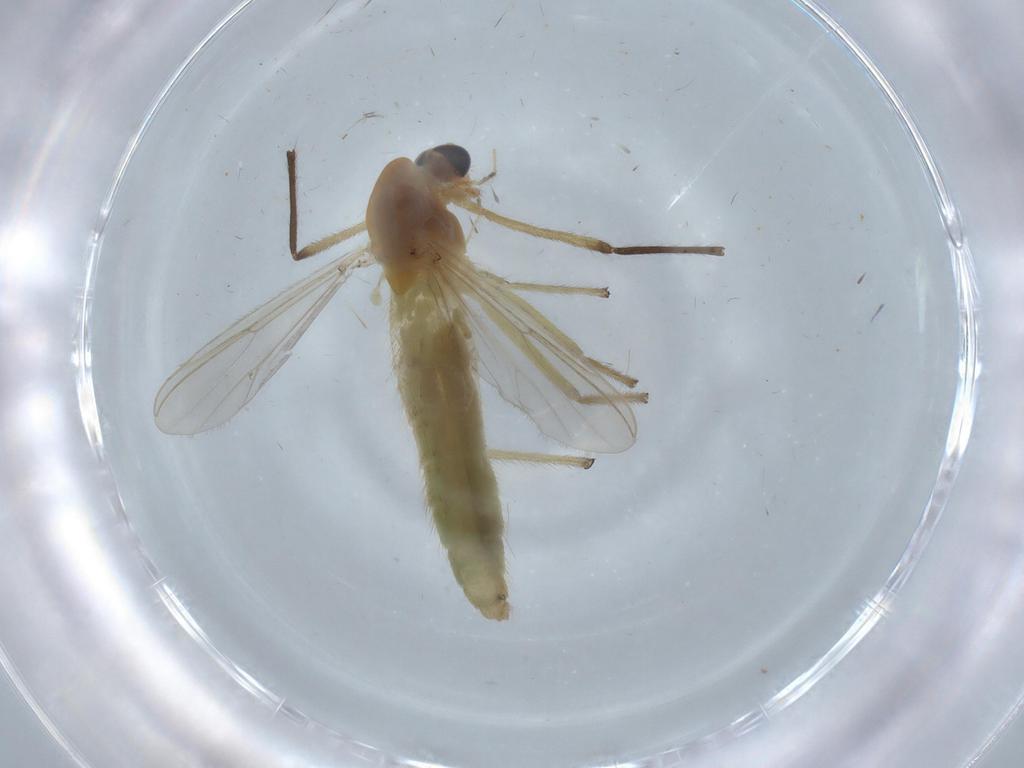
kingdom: Animalia
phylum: Arthropoda
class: Insecta
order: Diptera
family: Chironomidae
